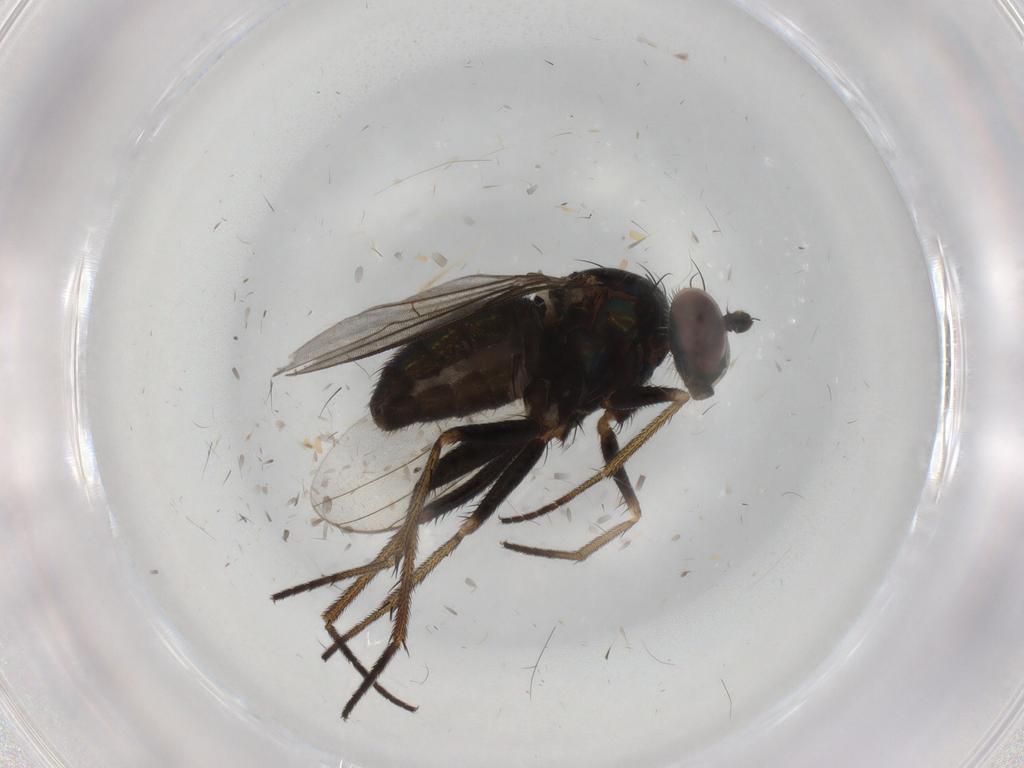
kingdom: Animalia
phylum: Arthropoda
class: Insecta
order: Diptera
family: Dolichopodidae
